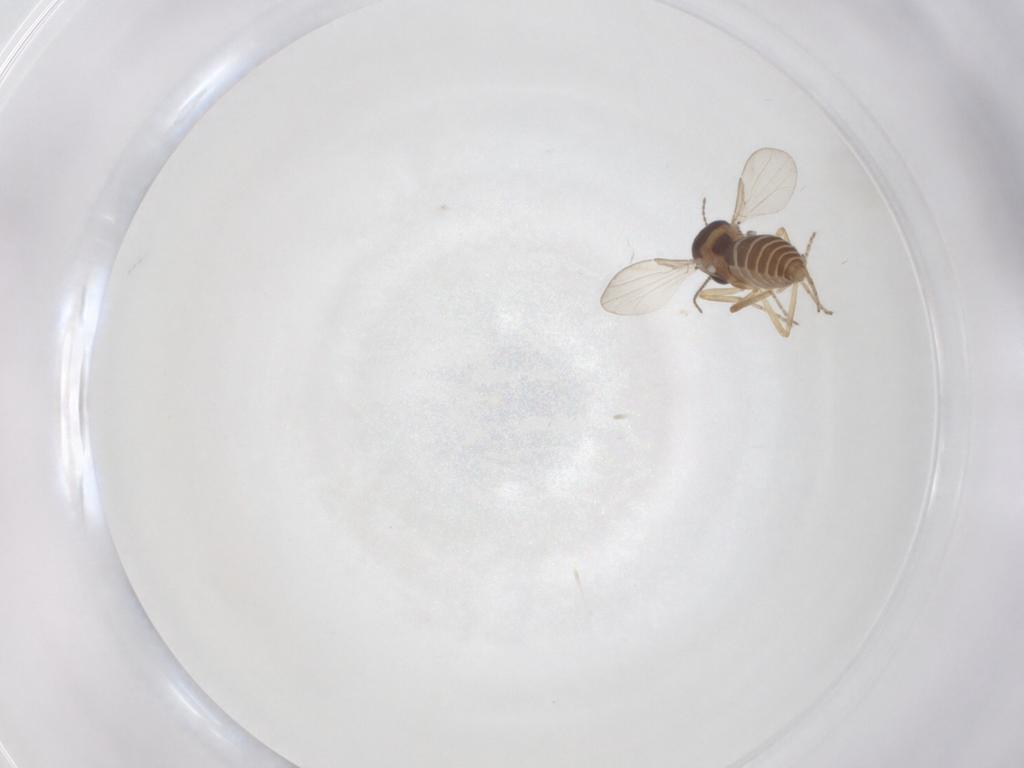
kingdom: Animalia
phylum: Arthropoda
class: Insecta
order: Diptera
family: Ceratopogonidae
